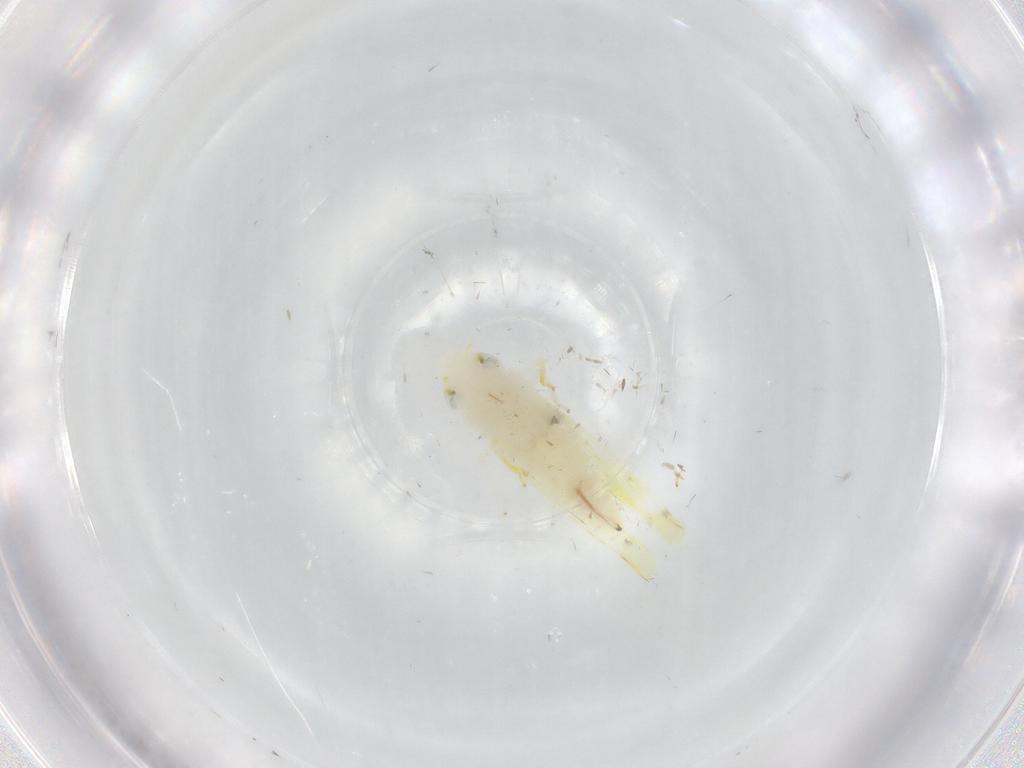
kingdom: Animalia
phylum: Arthropoda
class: Insecta
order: Hemiptera
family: Cicadellidae
